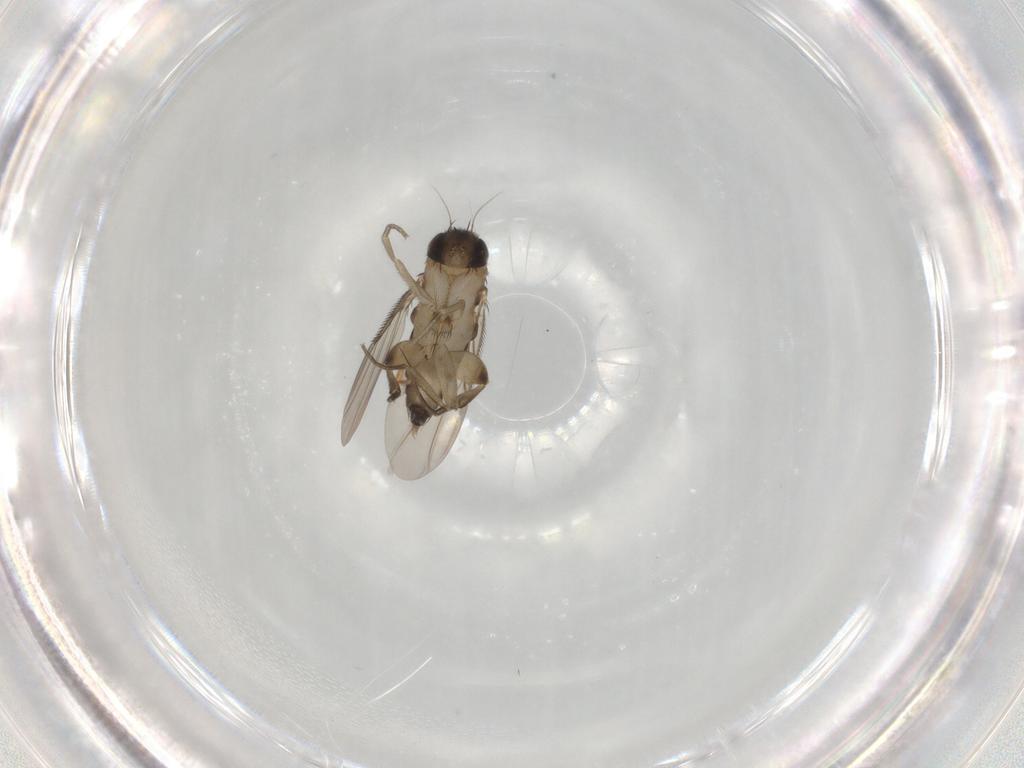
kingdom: Animalia
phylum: Arthropoda
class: Insecta
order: Diptera
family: Phoridae
